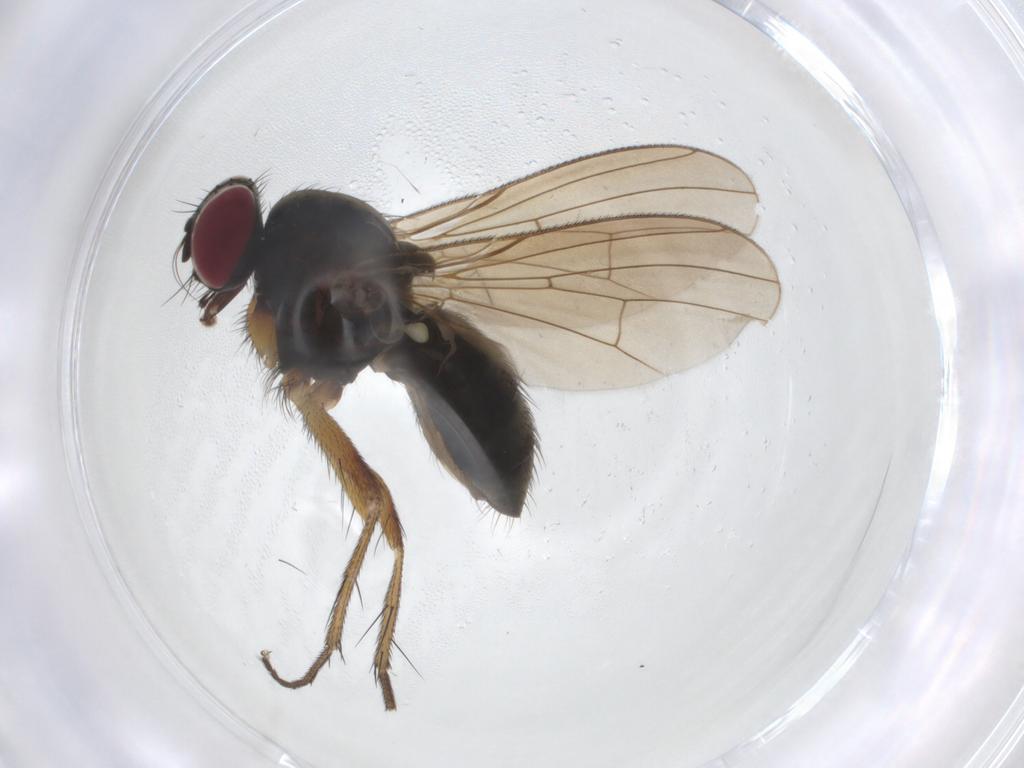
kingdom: Animalia
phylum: Arthropoda
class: Insecta
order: Diptera
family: Muscidae
